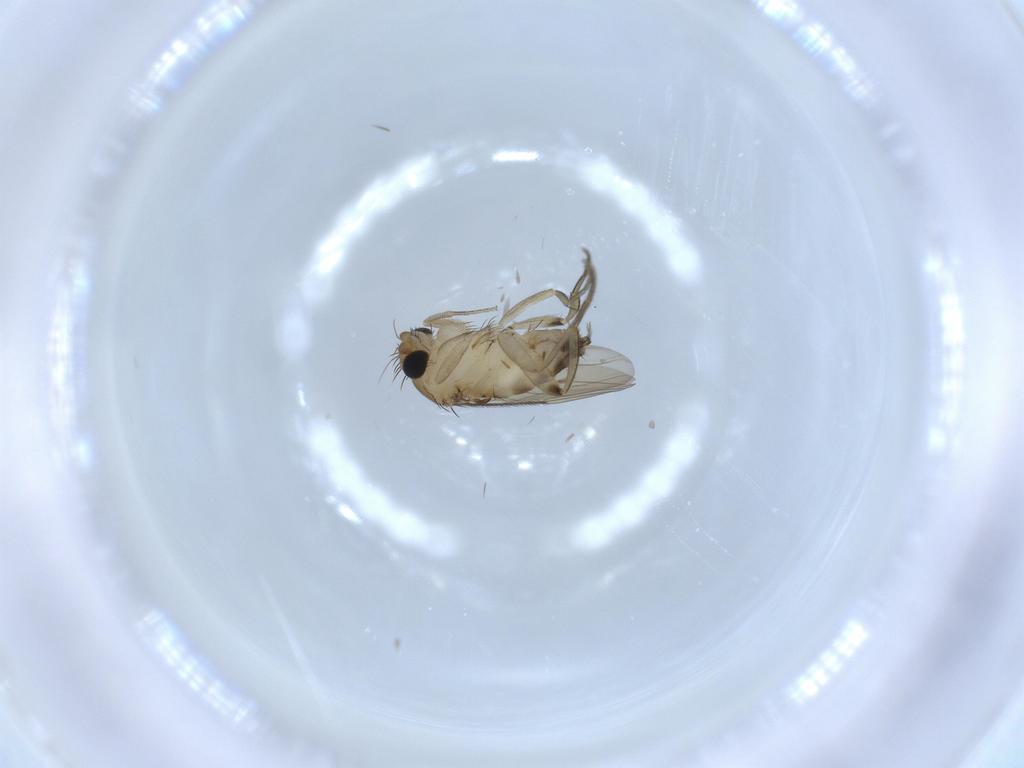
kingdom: Animalia
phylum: Arthropoda
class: Insecta
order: Diptera
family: Phoridae
